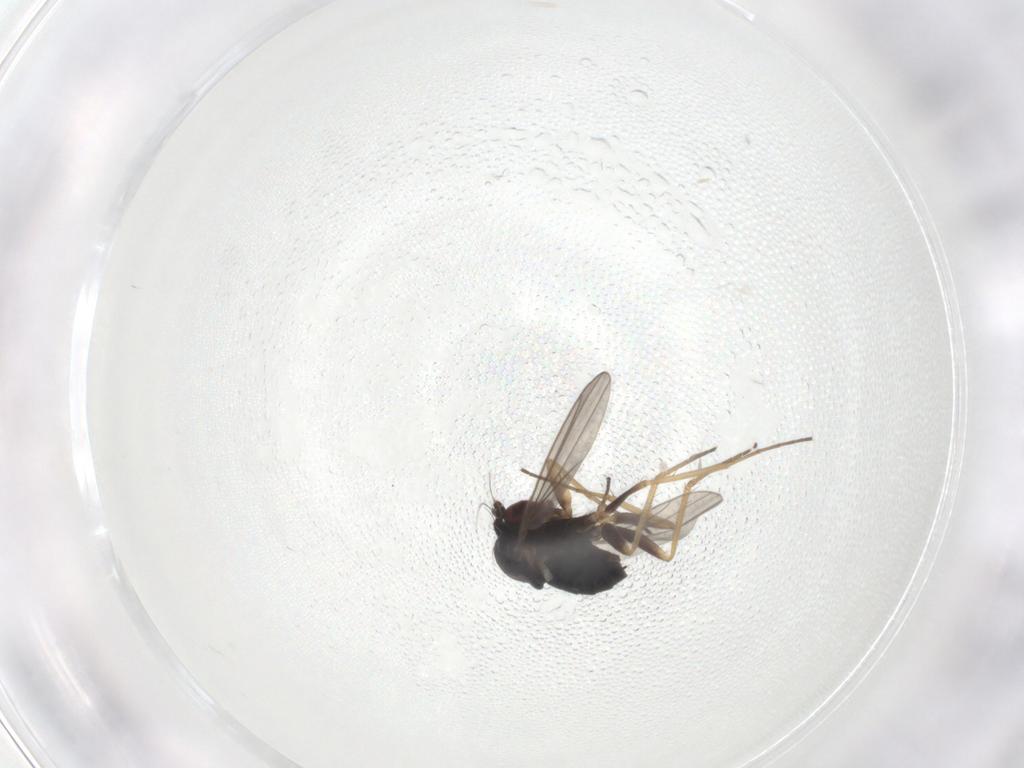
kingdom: Animalia
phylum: Arthropoda
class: Insecta
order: Diptera
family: Dolichopodidae
